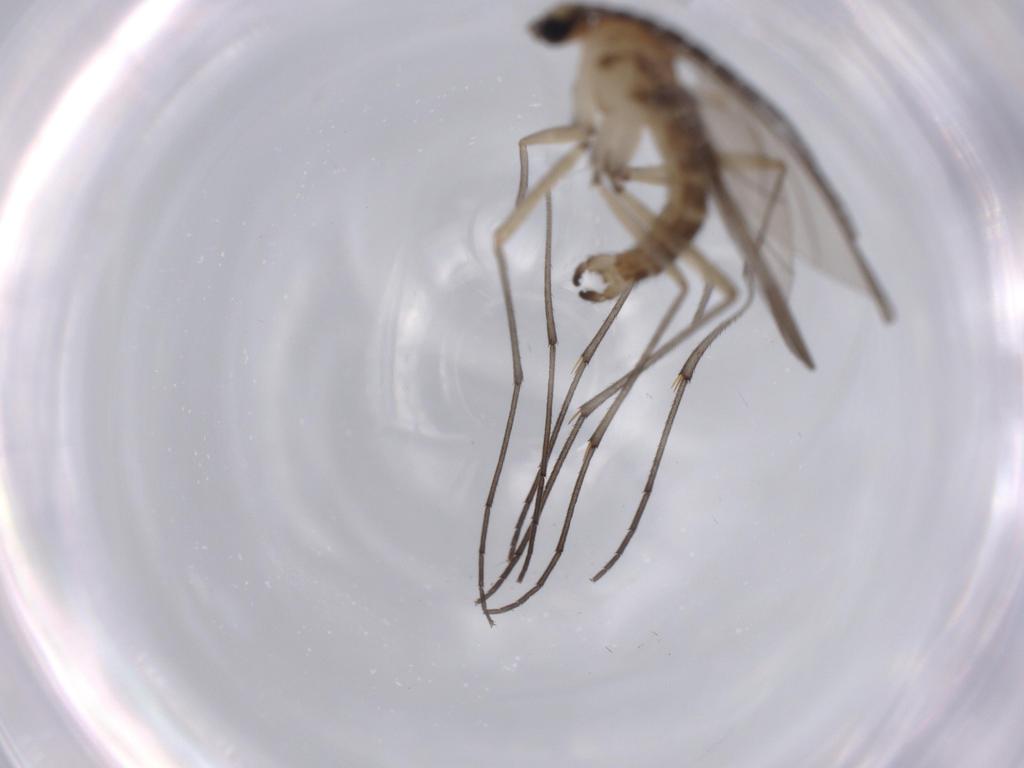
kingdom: Animalia
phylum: Arthropoda
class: Insecta
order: Diptera
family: Sciaridae
